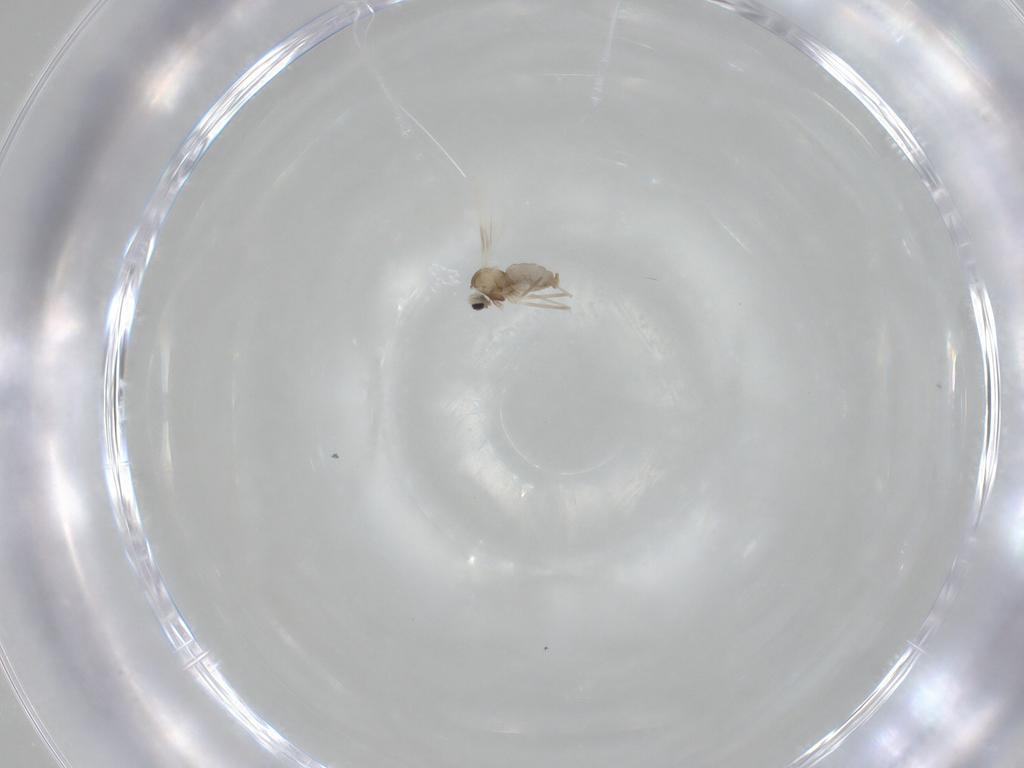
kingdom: Animalia
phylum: Arthropoda
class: Insecta
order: Diptera
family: Cecidomyiidae
